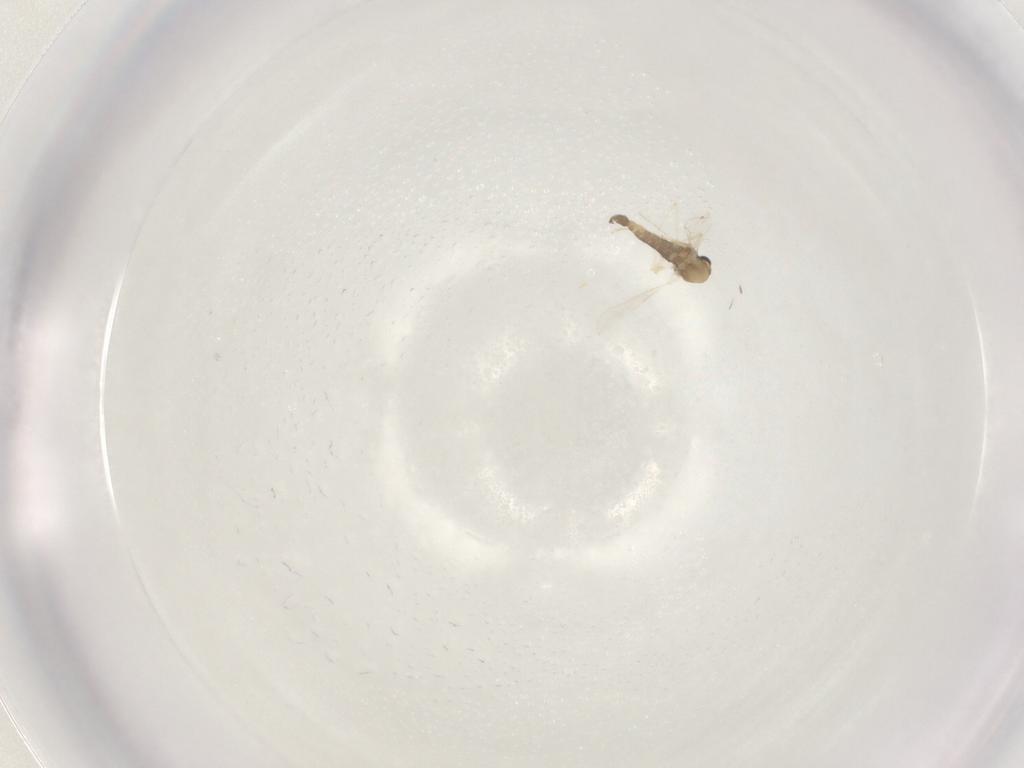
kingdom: Animalia
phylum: Arthropoda
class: Insecta
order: Diptera
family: Chironomidae
